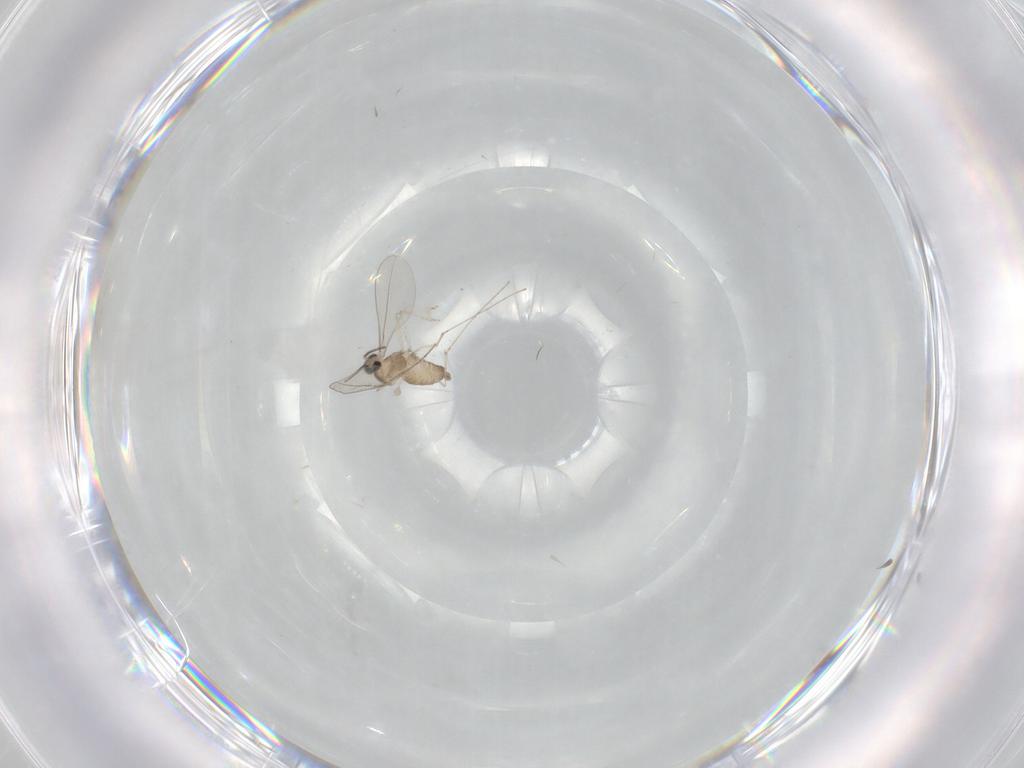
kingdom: Animalia
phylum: Arthropoda
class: Insecta
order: Diptera
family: Cecidomyiidae
